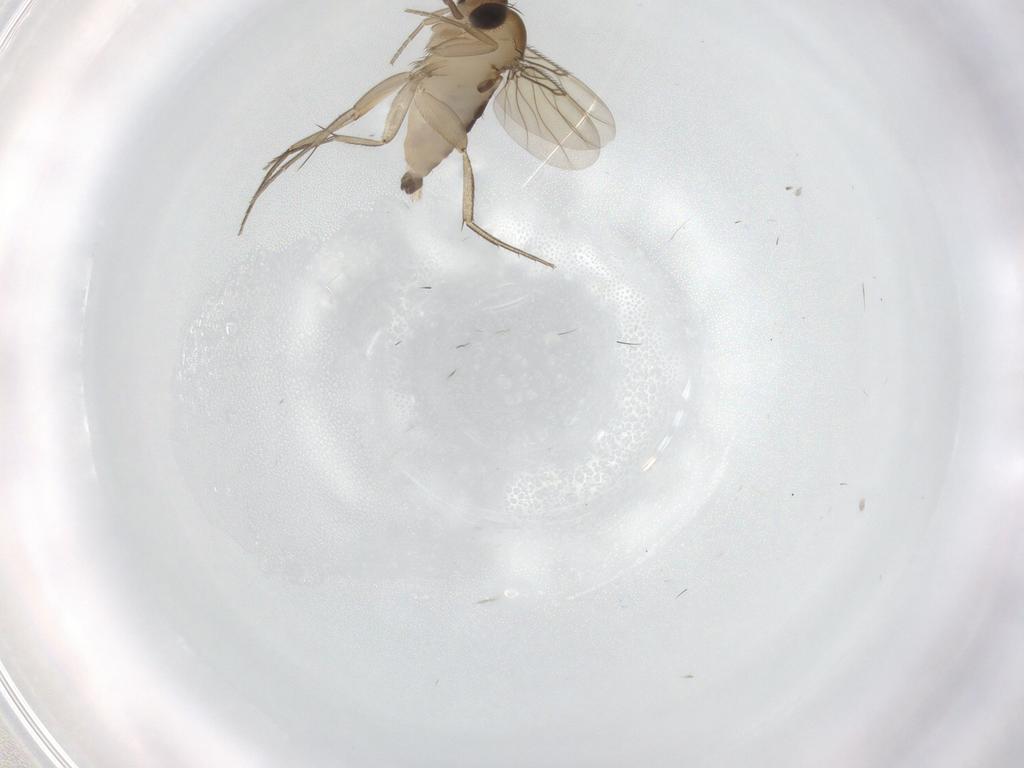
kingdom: Animalia
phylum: Arthropoda
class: Insecta
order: Diptera
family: Phoridae
